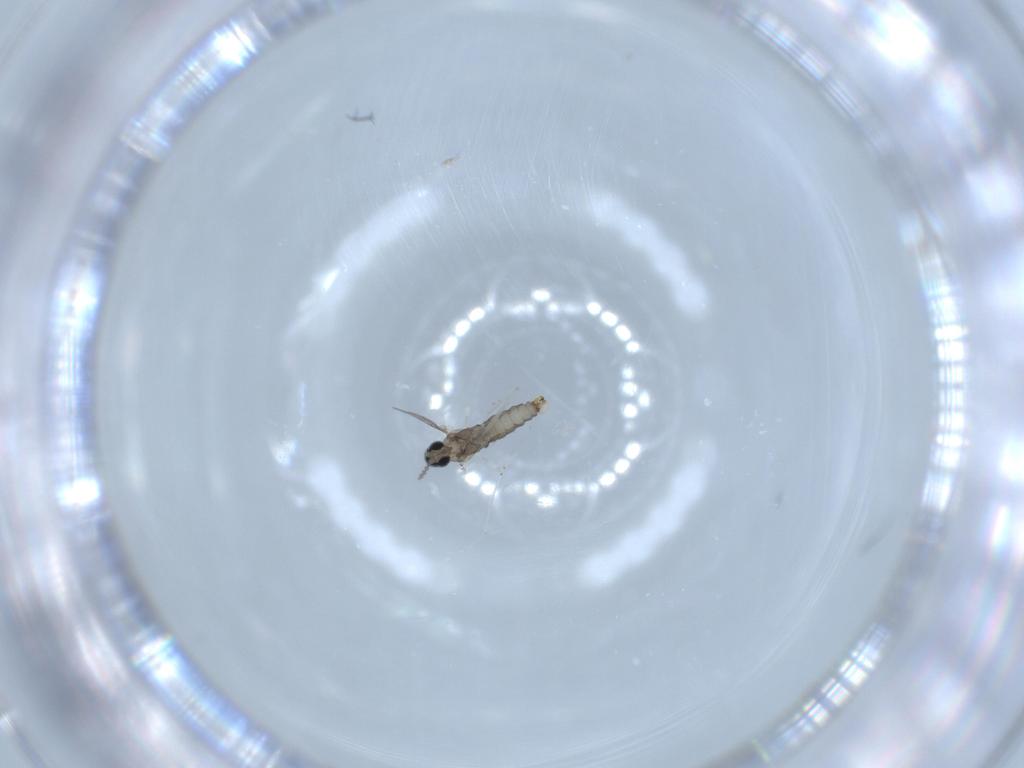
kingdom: Animalia
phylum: Arthropoda
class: Insecta
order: Diptera
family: Cecidomyiidae
